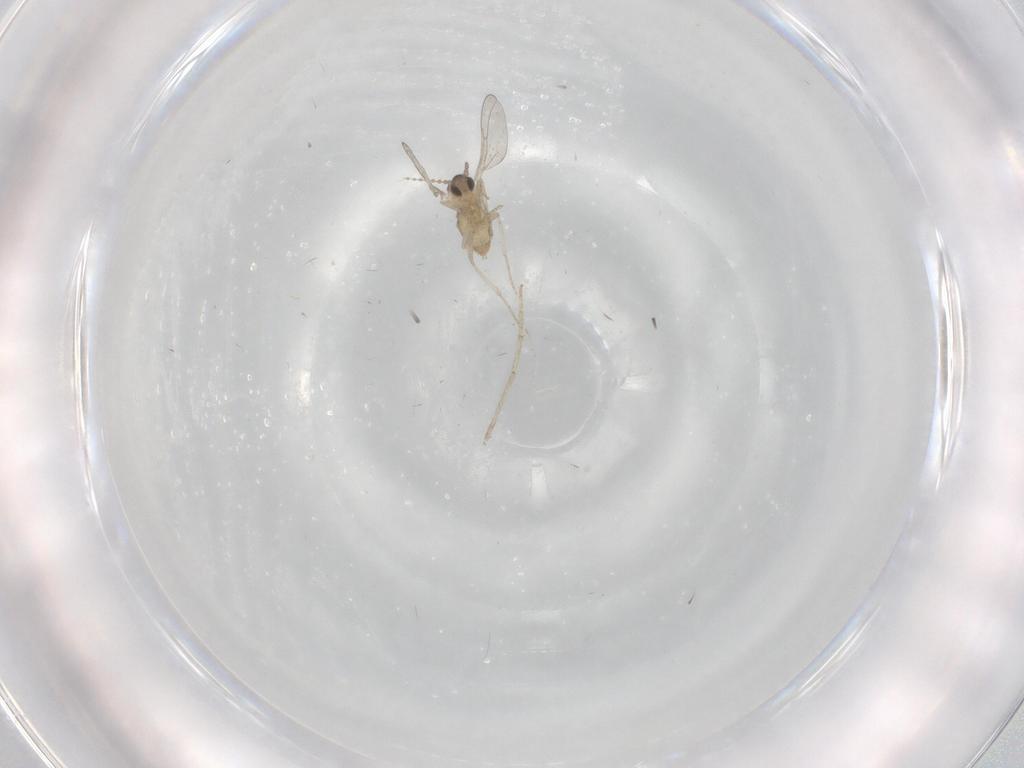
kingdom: Animalia
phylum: Arthropoda
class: Insecta
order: Diptera
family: Cecidomyiidae
